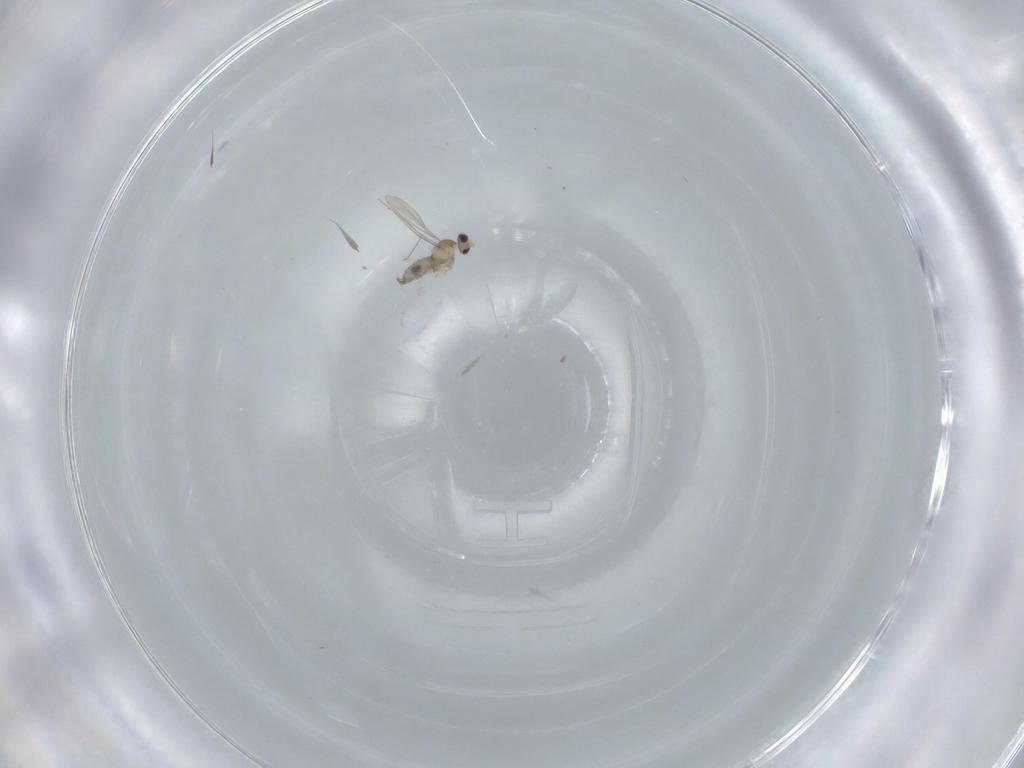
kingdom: Animalia
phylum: Arthropoda
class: Insecta
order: Diptera
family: Cecidomyiidae
